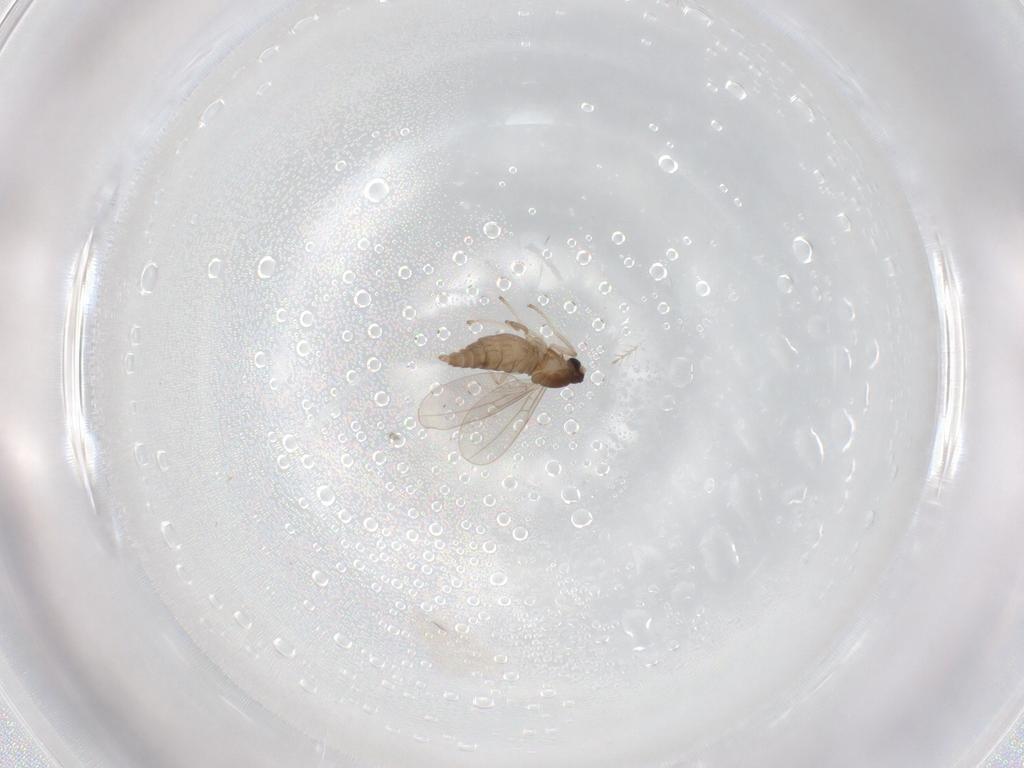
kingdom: Animalia
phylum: Arthropoda
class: Insecta
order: Diptera
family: Cecidomyiidae
